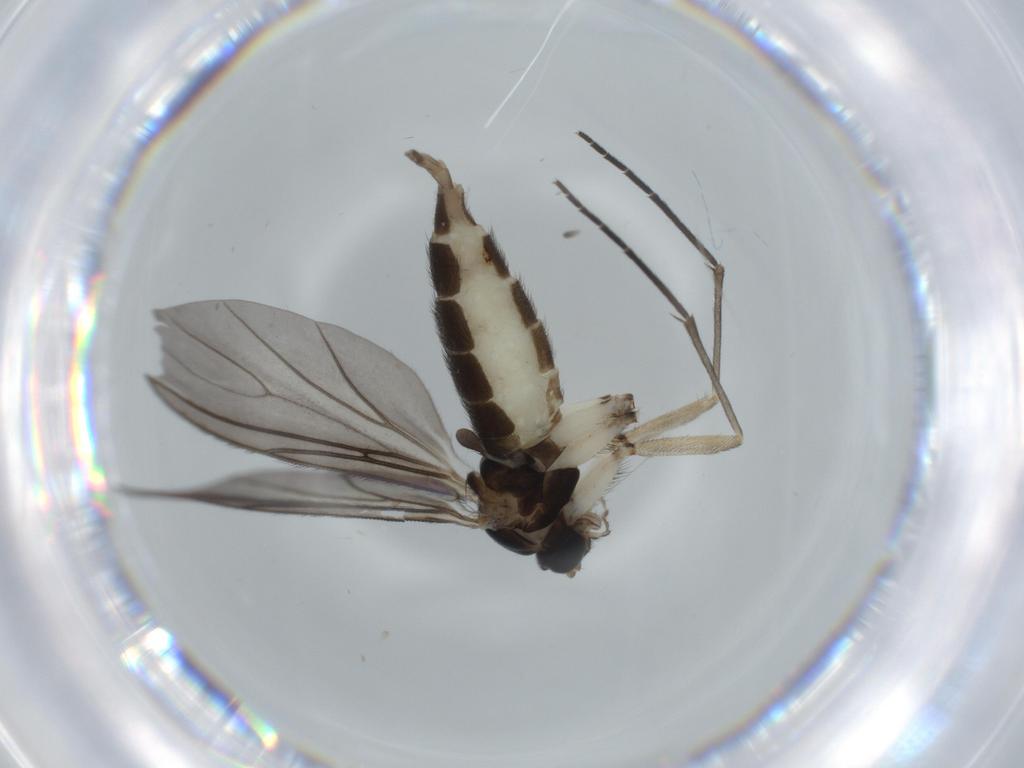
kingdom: Animalia
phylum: Arthropoda
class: Insecta
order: Diptera
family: Sciaridae
